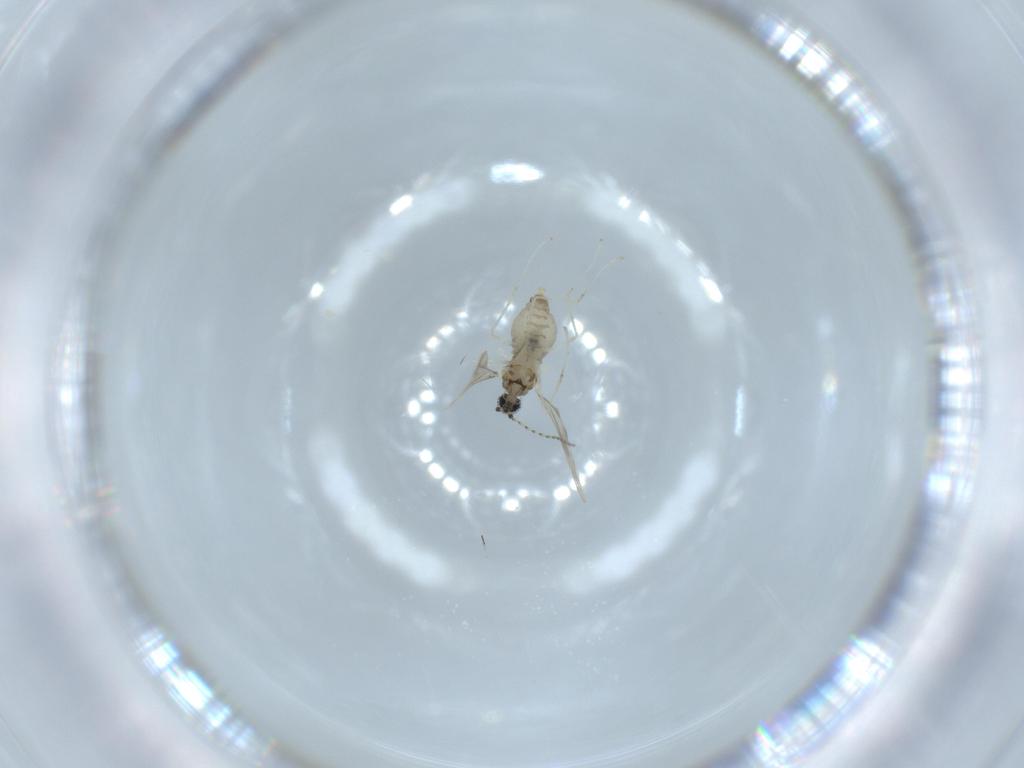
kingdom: Animalia
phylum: Arthropoda
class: Insecta
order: Diptera
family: Cecidomyiidae
